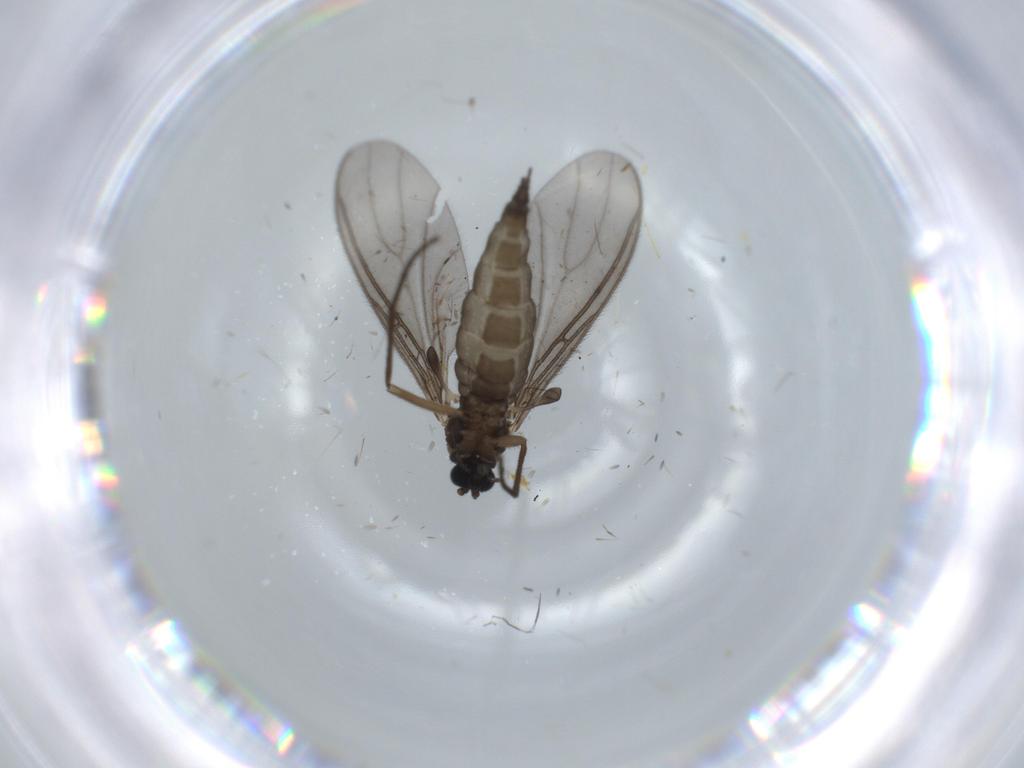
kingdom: Animalia
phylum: Arthropoda
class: Insecta
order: Diptera
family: Sciaridae
